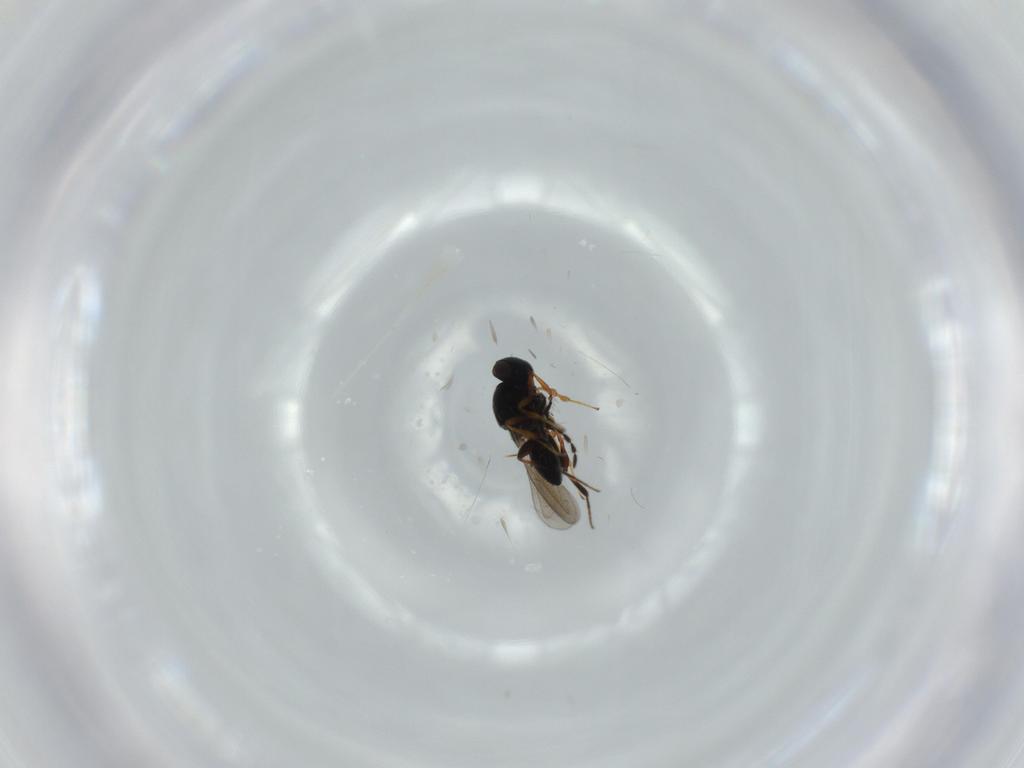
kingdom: Animalia
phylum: Arthropoda
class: Insecta
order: Hymenoptera
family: Platygastridae
